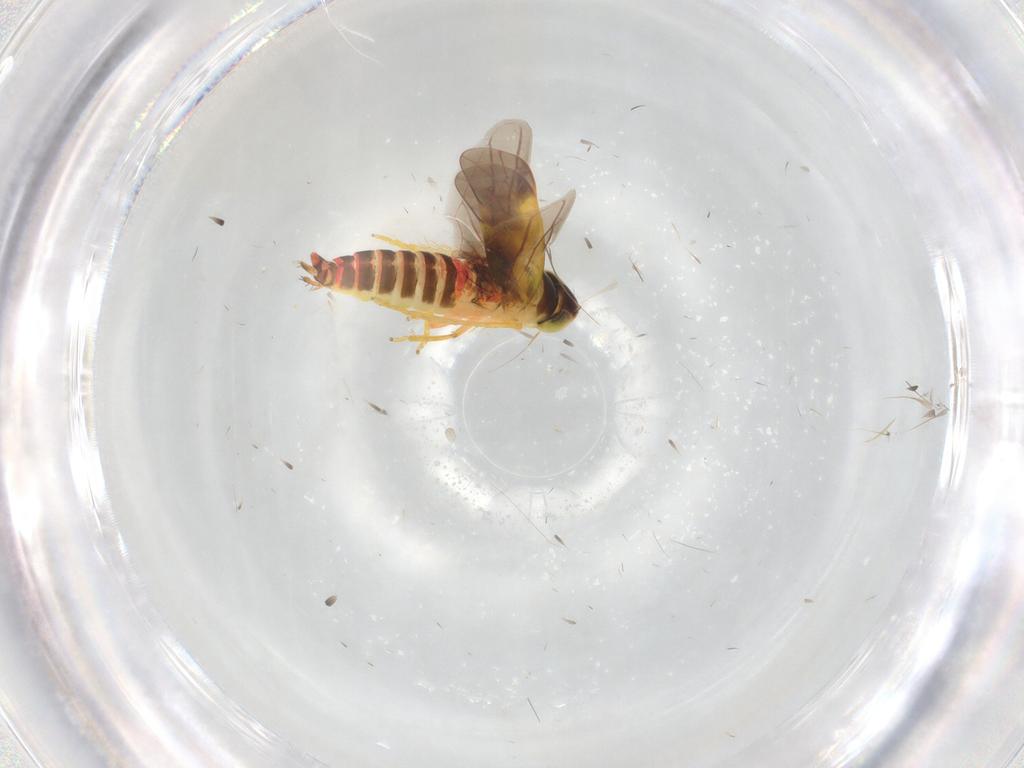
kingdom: Animalia
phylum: Arthropoda
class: Insecta
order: Hemiptera
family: Cicadellidae
